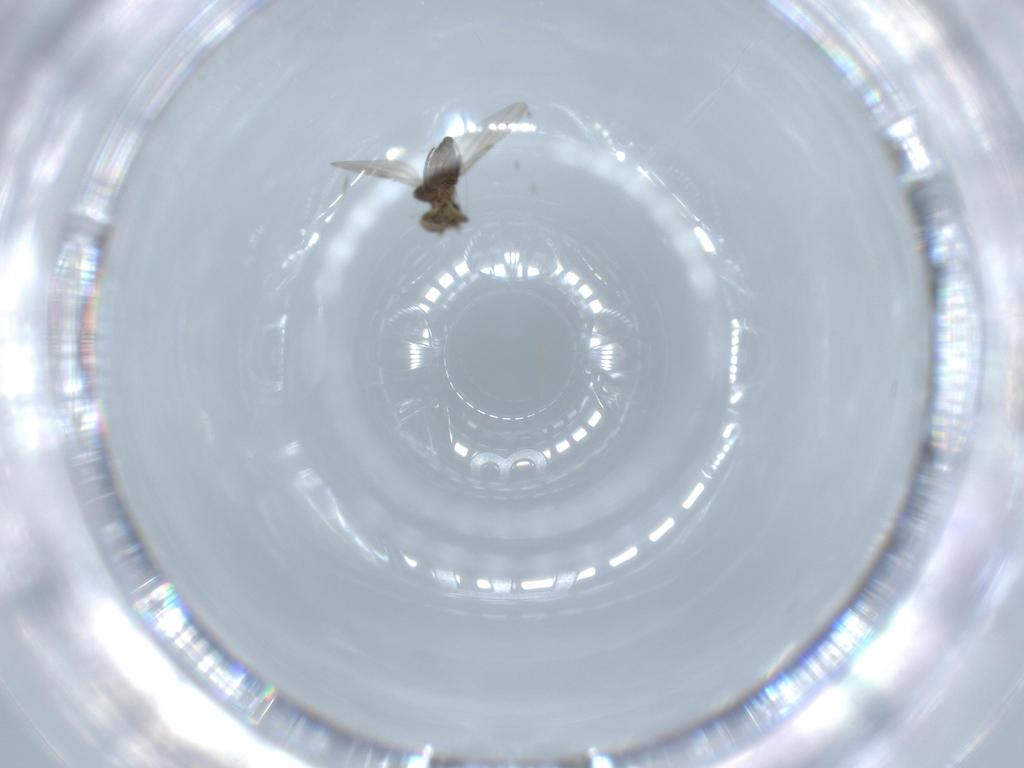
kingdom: Animalia
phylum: Arthropoda
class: Insecta
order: Diptera
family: Phoridae
